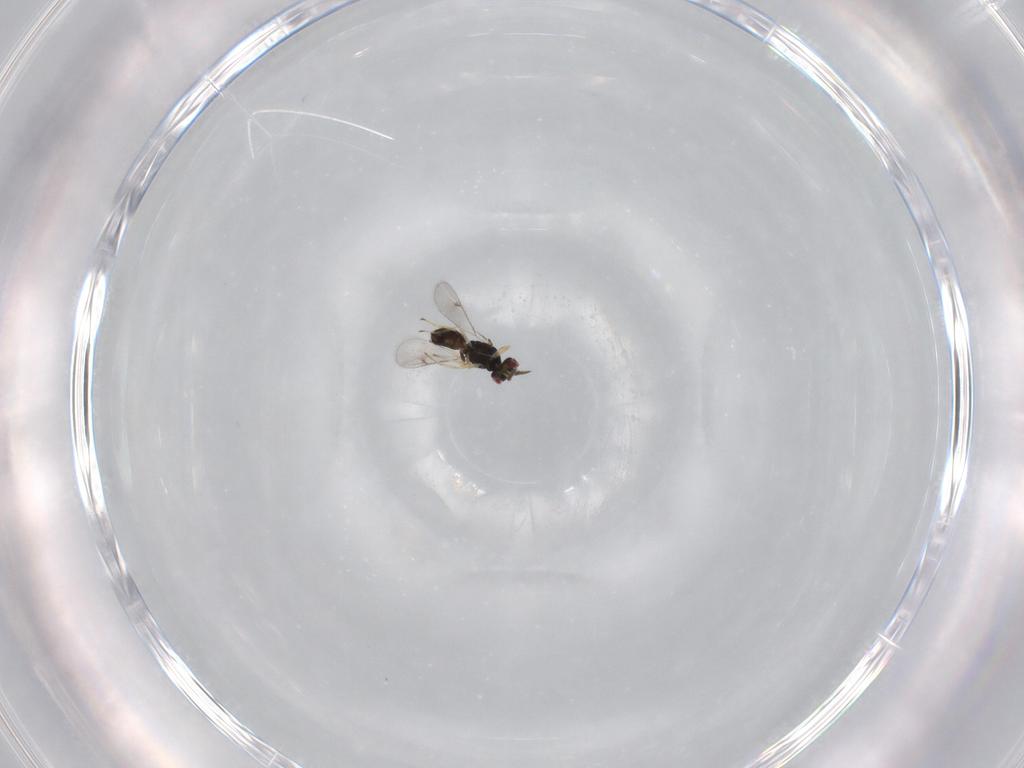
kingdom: Animalia
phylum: Arthropoda
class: Insecta
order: Hymenoptera
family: Eulophidae
